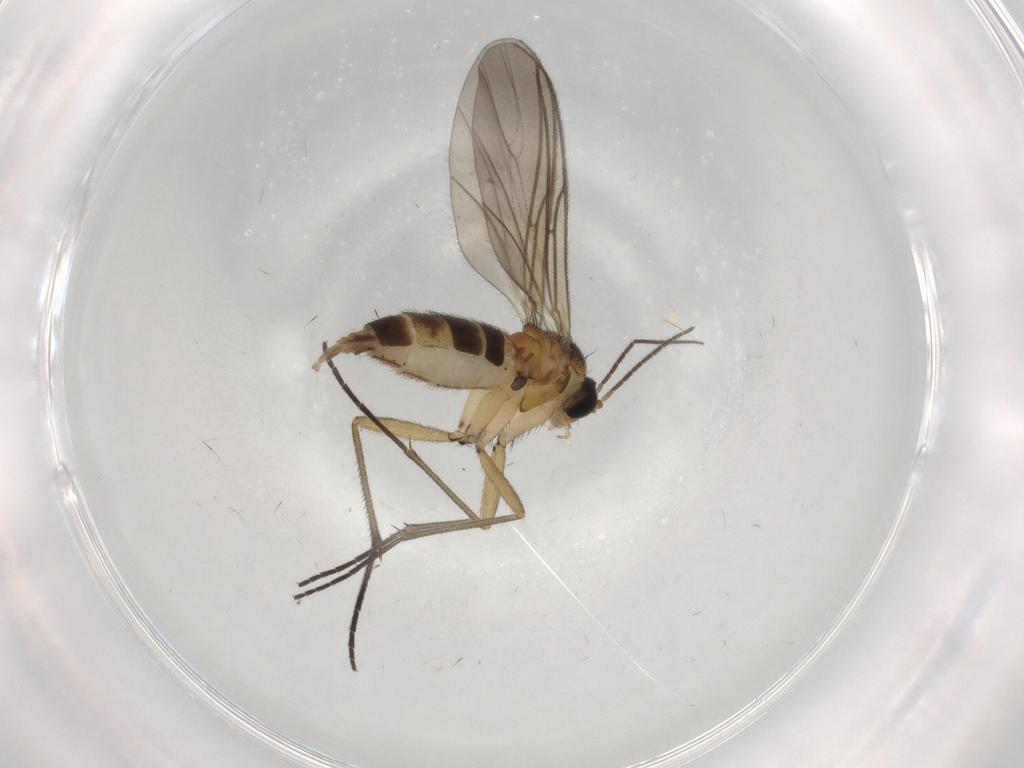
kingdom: Animalia
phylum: Arthropoda
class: Insecta
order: Diptera
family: Sciaridae
